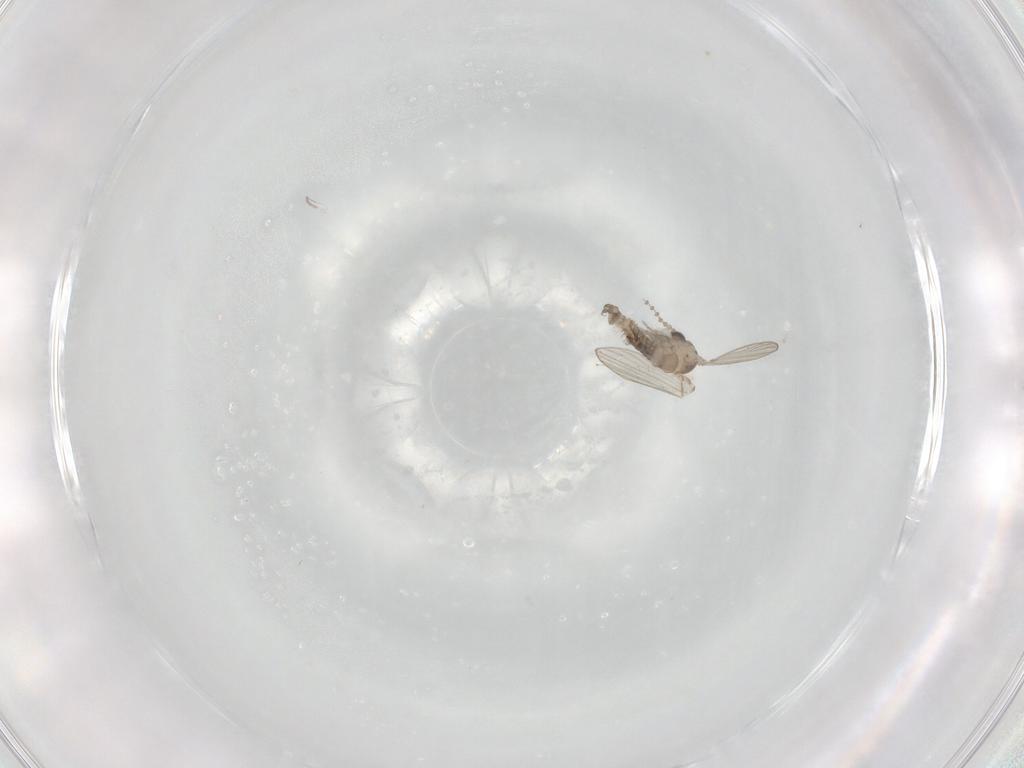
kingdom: Animalia
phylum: Arthropoda
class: Insecta
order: Diptera
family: Psychodidae
